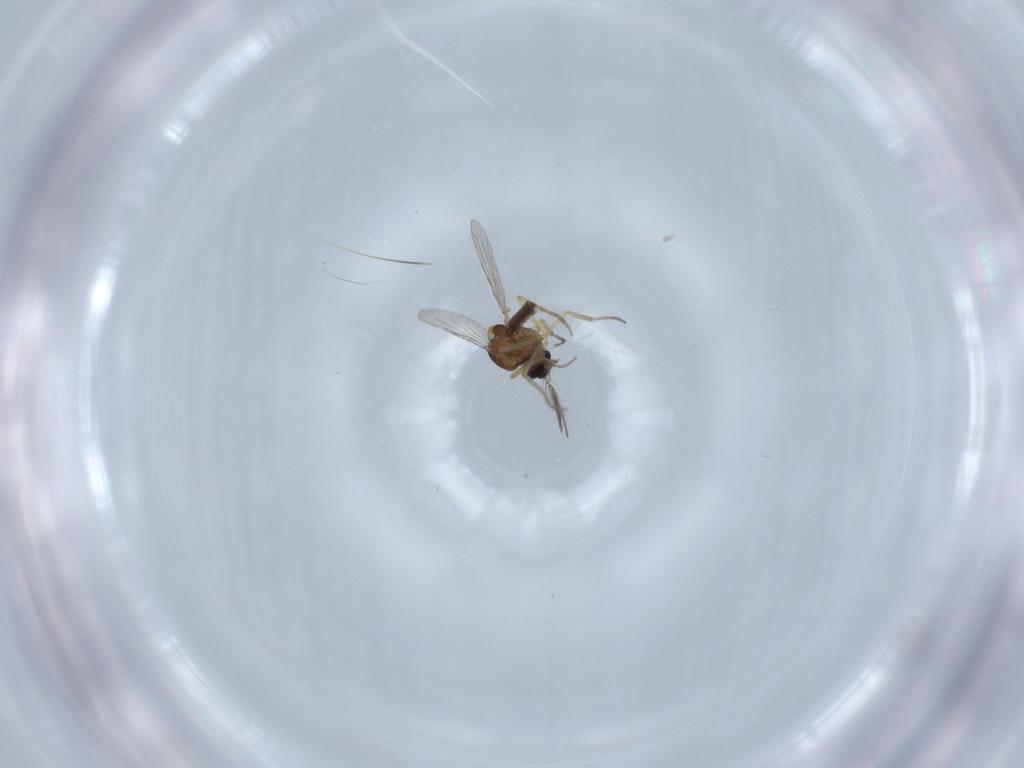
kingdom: Animalia
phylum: Arthropoda
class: Insecta
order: Diptera
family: Ceratopogonidae
